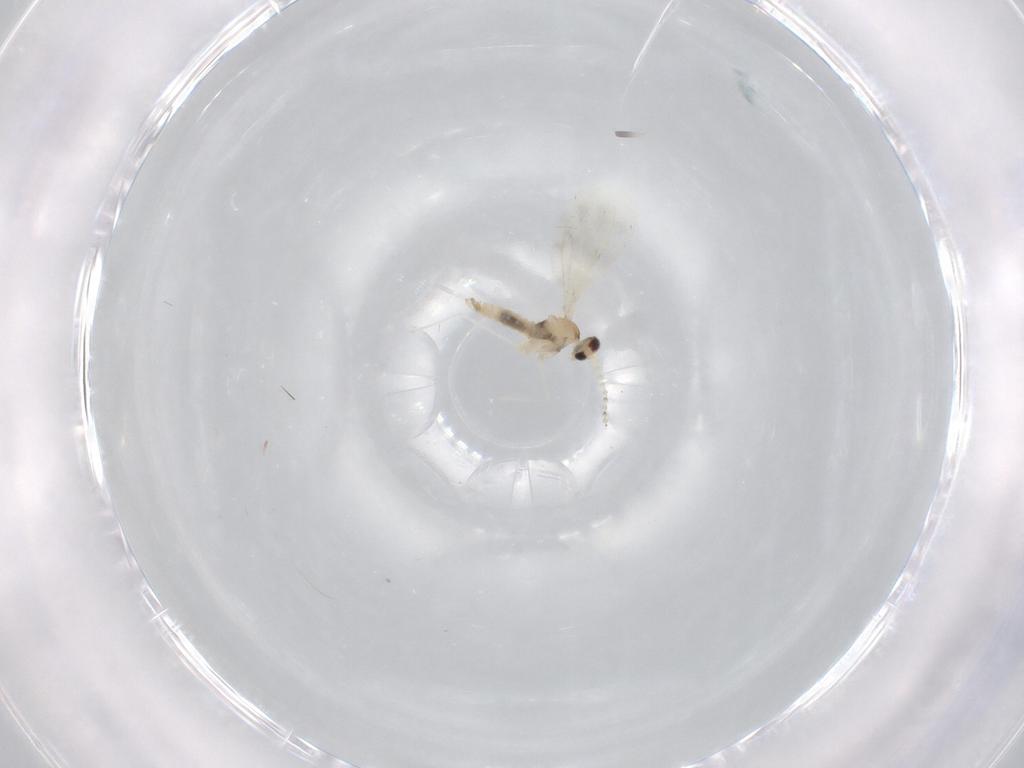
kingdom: Animalia
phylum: Arthropoda
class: Insecta
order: Diptera
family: Cecidomyiidae
